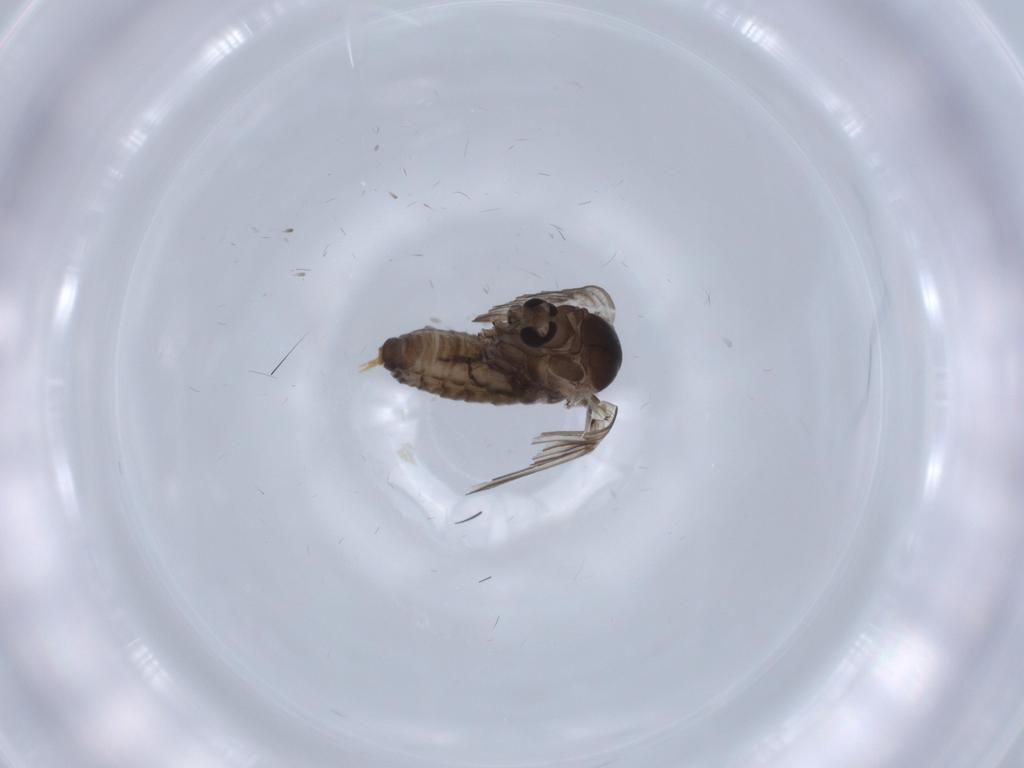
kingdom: Animalia
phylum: Arthropoda
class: Insecta
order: Diptera
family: Psychodidae
